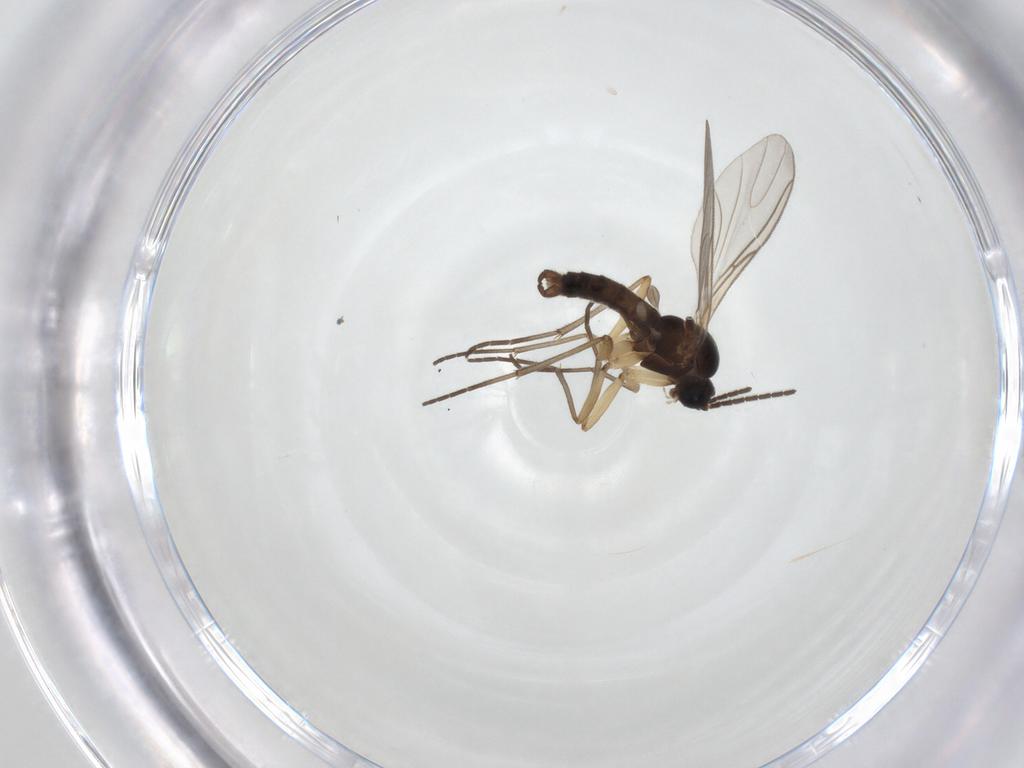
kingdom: Animalia
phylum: Arthropoda
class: Insecta
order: Diptera
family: Sciaridae
